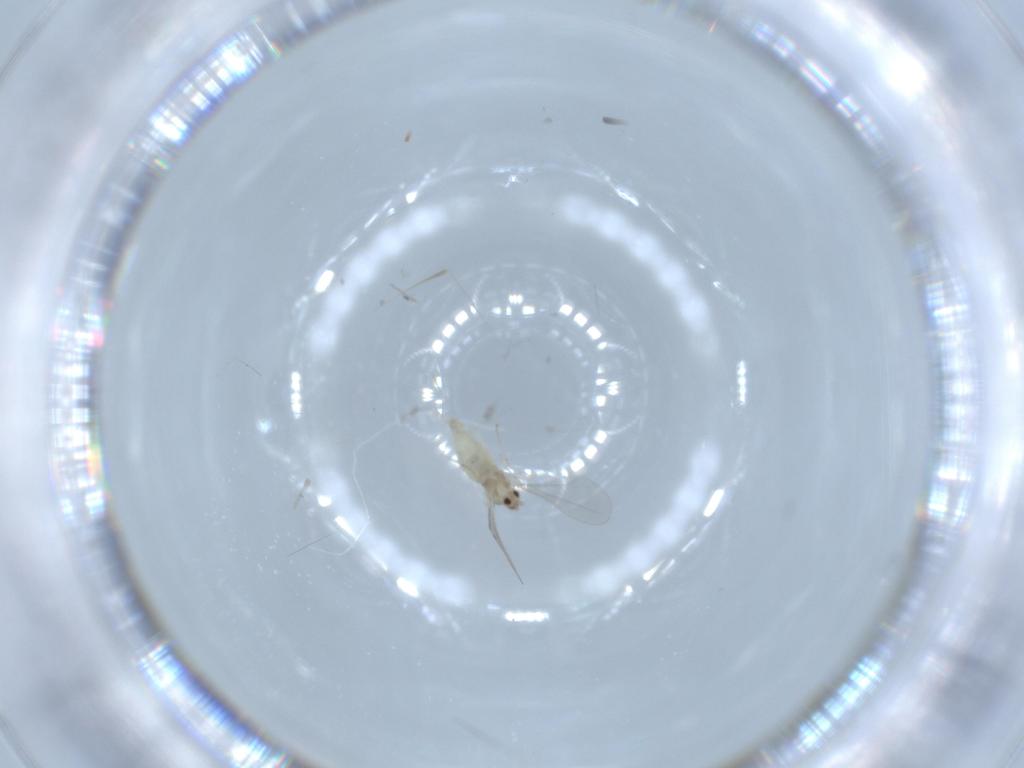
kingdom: Animalia
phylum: Arthropoda
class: Insecta
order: Diptera
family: Cecidomyiidae
